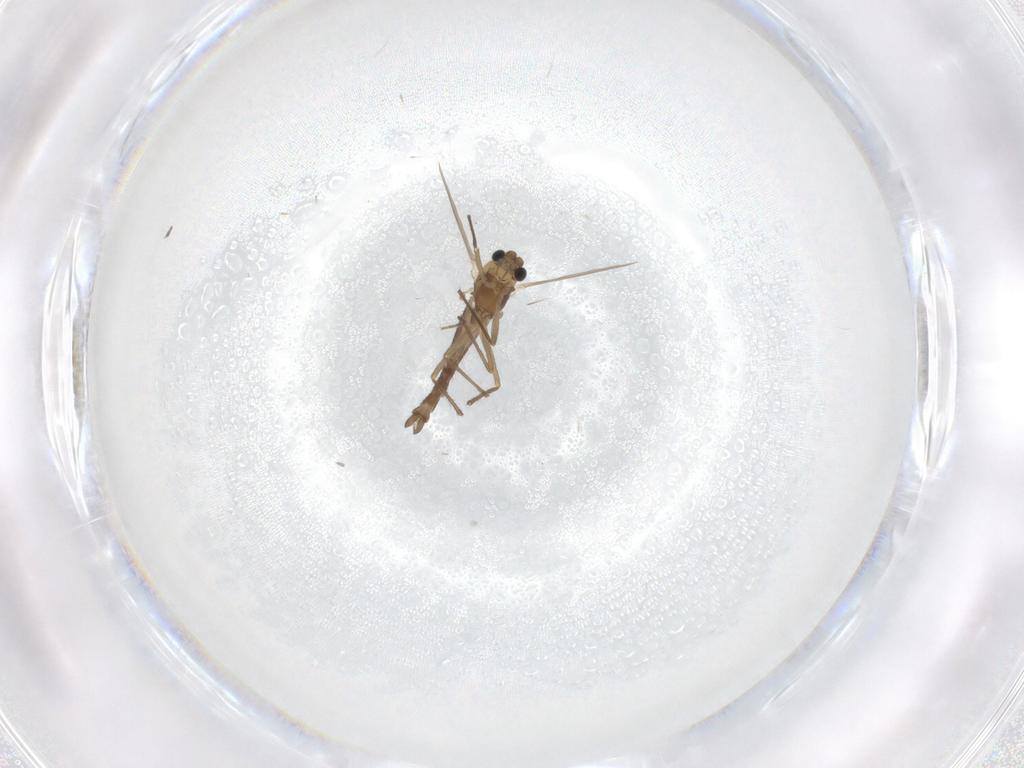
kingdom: Animalia
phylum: Arthropoda
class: Insecta
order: Diptera
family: Chironomidae
